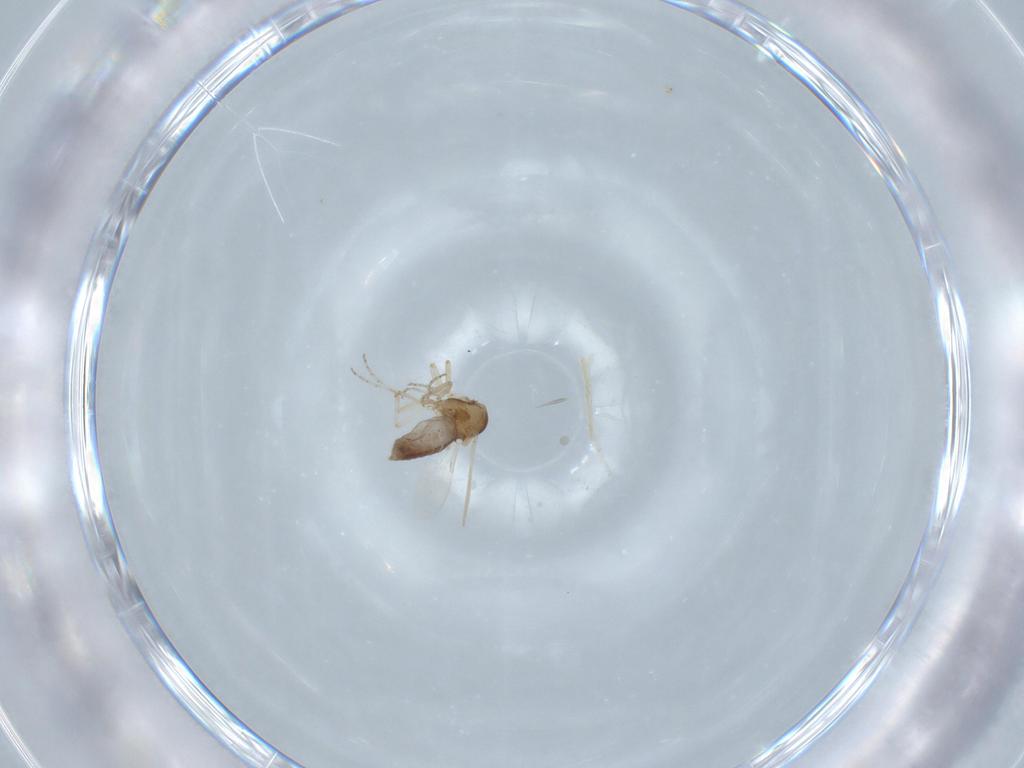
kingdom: Animalia
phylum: Arthropoda
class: Insecta
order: Diptera
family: Ceratopogonidae
